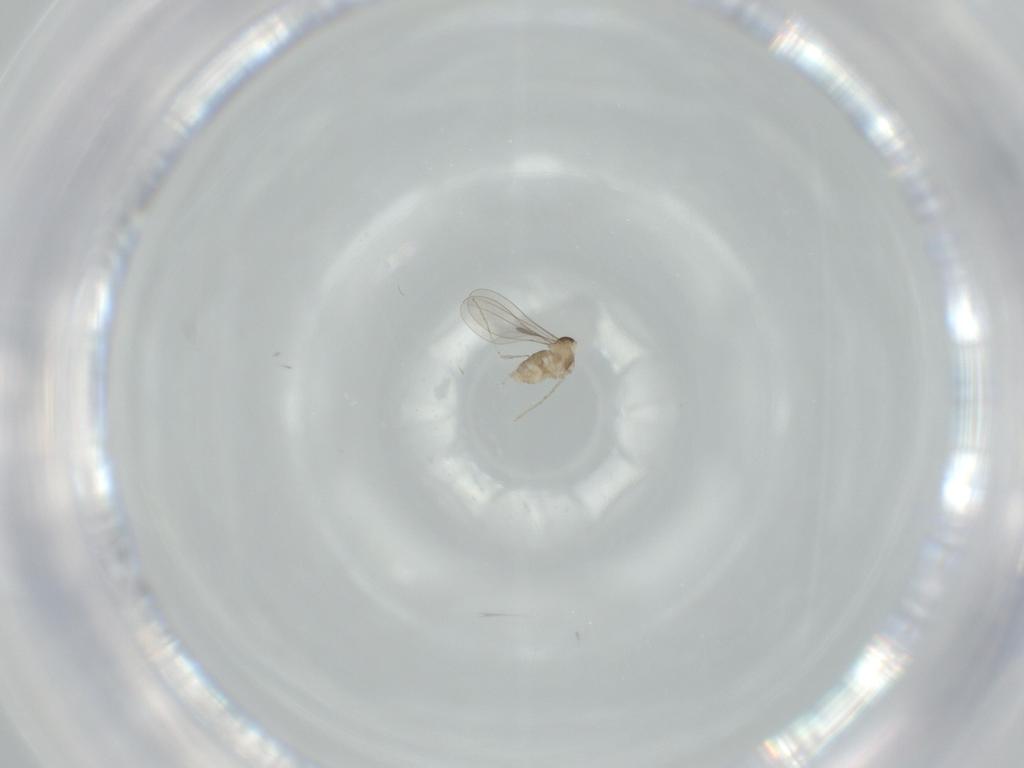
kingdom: Animalia
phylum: Arthropoda
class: Insecta
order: Diptera
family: Cecidomyiidae
